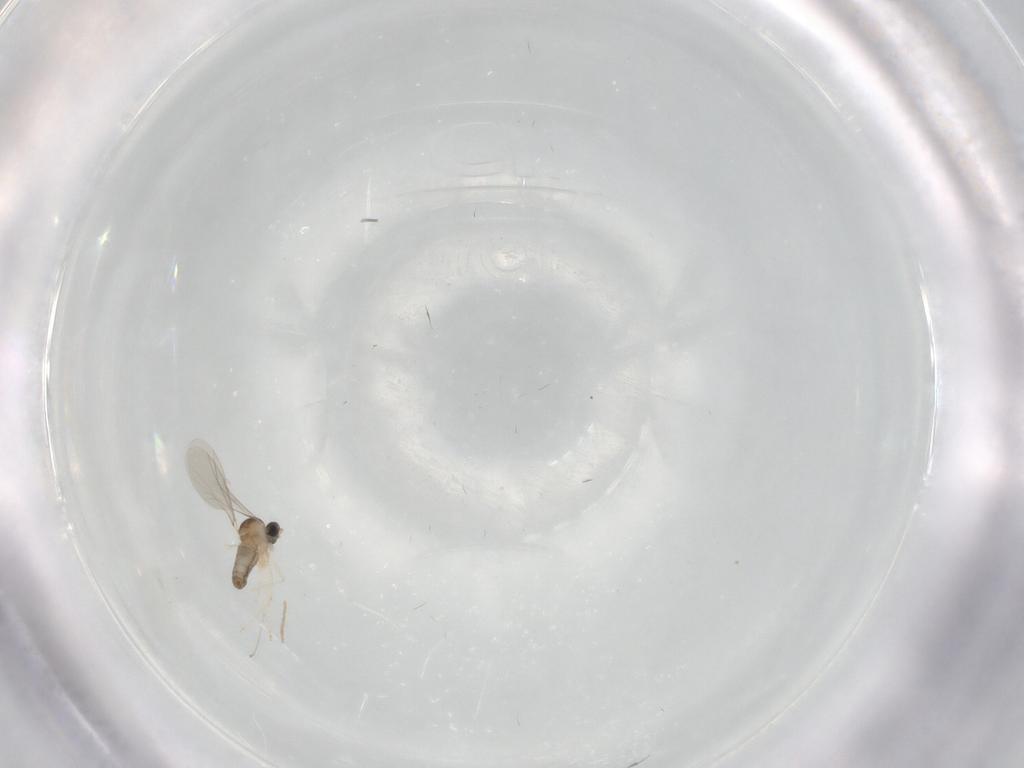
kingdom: Animalia
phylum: Arthropoda
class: Insecta
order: Diptera
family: Cecidomyiidae
